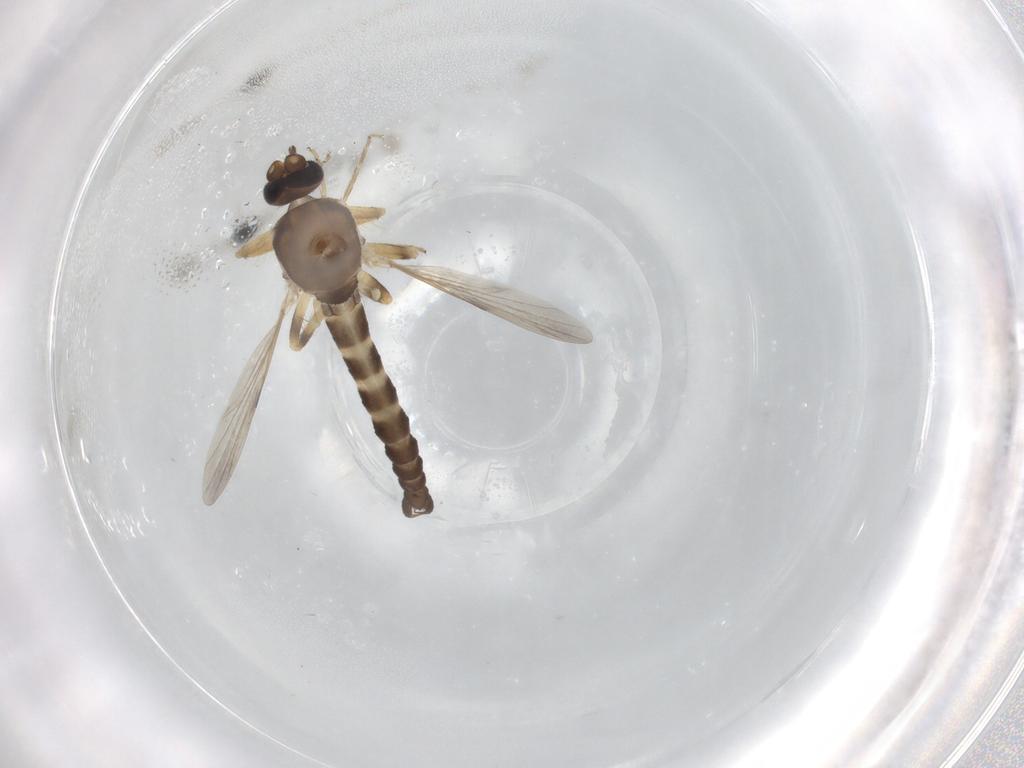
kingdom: Animalia
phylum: Arthropoda
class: Insecta
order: Diptera
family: Ceratopogonidae
